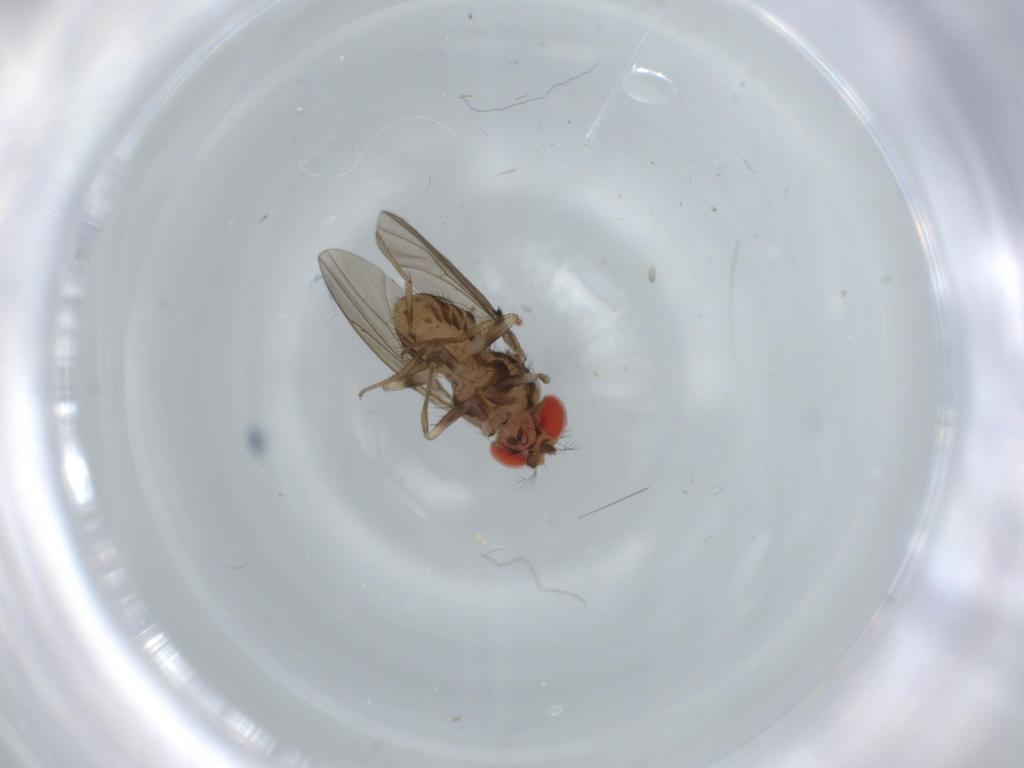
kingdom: Animalia
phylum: Arthropoda
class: Insecta
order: Diptera
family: Drosophilidae
